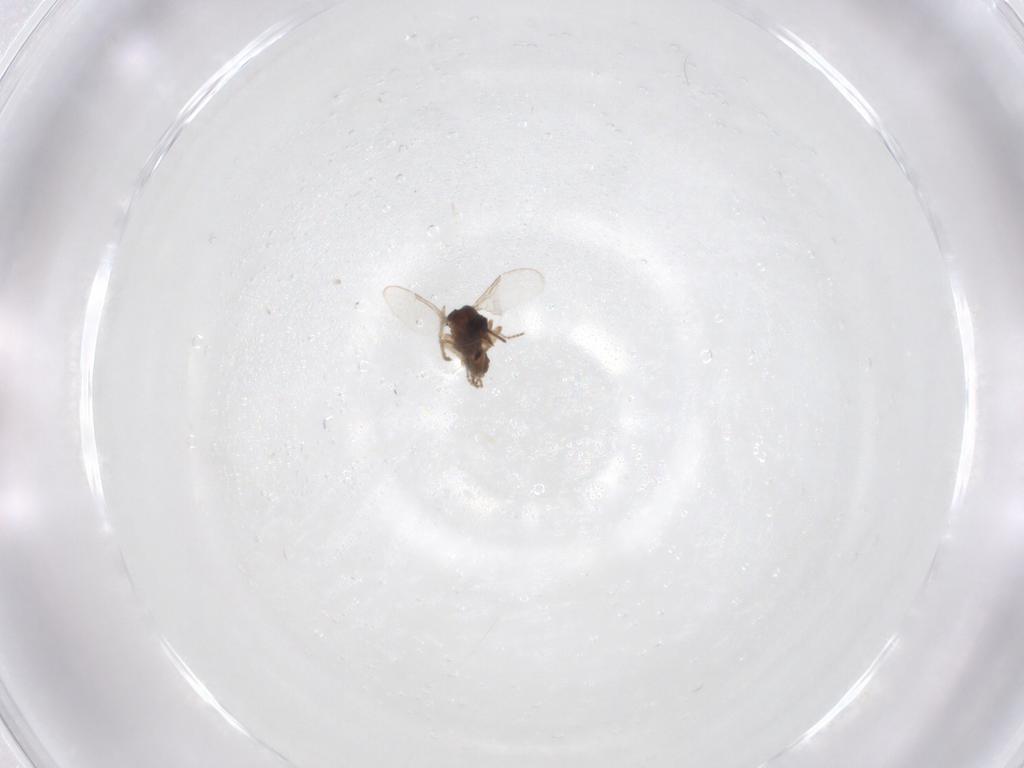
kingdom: Animalia
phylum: Arthropoda
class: Insecta
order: Diptera
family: Ceratopogonidae
